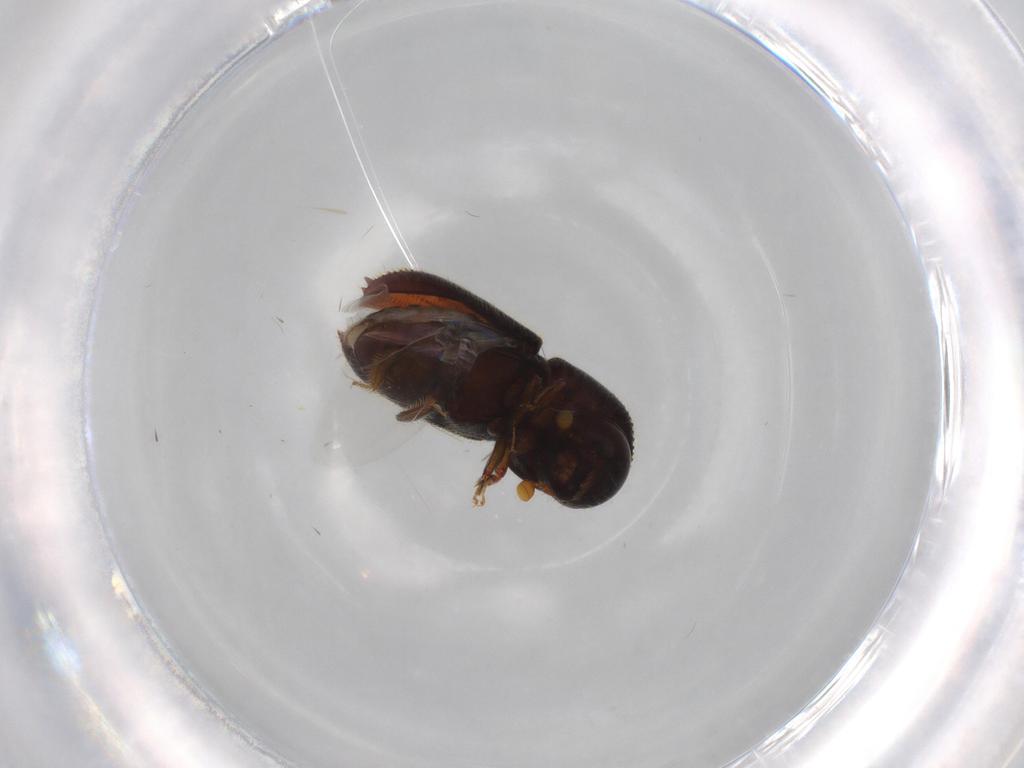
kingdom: Animalia
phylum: Arthropoda
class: Insecta
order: Coleoptera
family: Curculionidae
